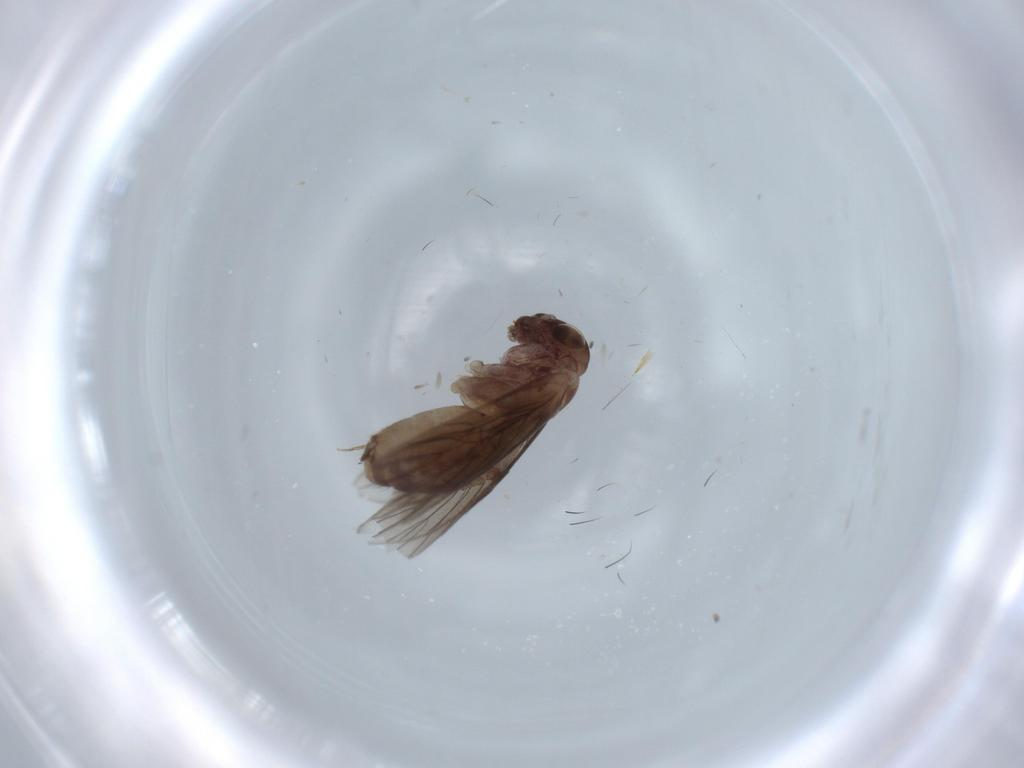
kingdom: Animalia
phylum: Arthropoda
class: Insecta
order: Psocodea
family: Lepidopsocidae
